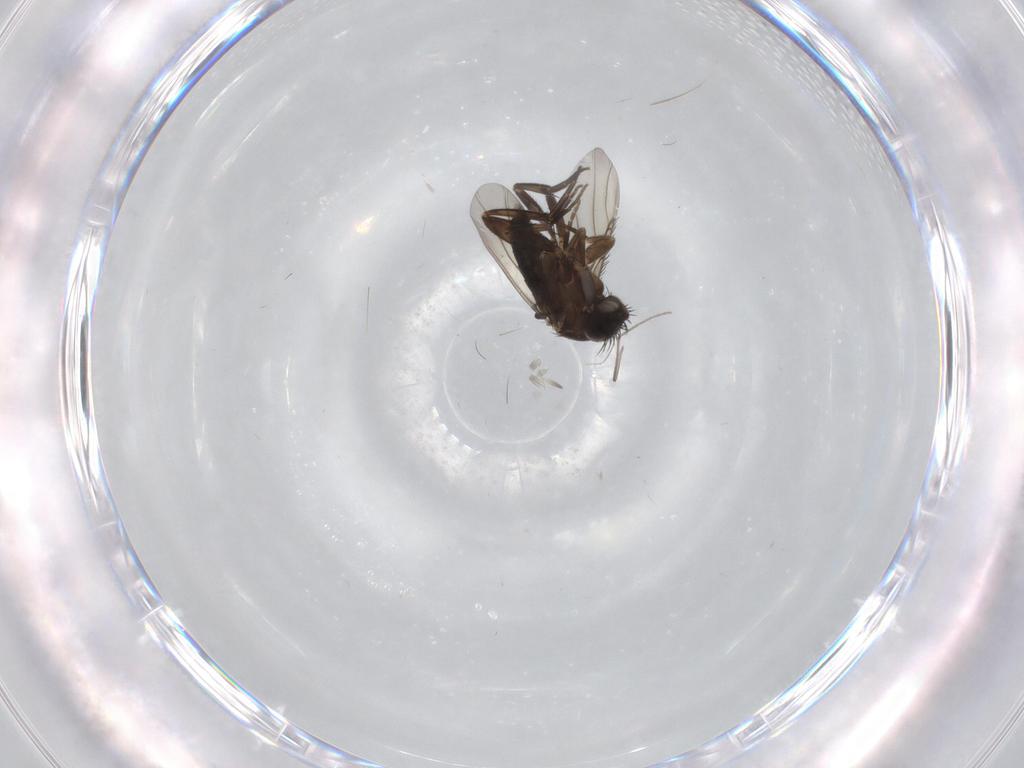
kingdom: Animalia
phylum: Arthropoda
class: Insecta
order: Diptera
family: Phoridae
